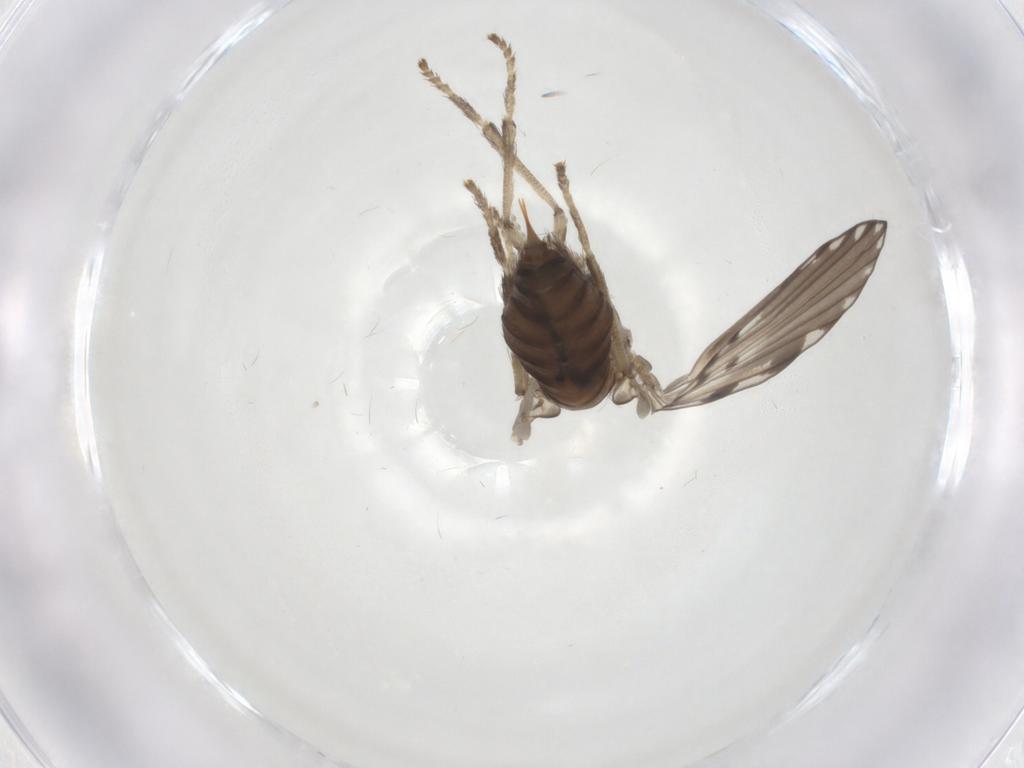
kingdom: Animalia
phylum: Arthropoda
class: Insecta
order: Diptera
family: Psychodidae
